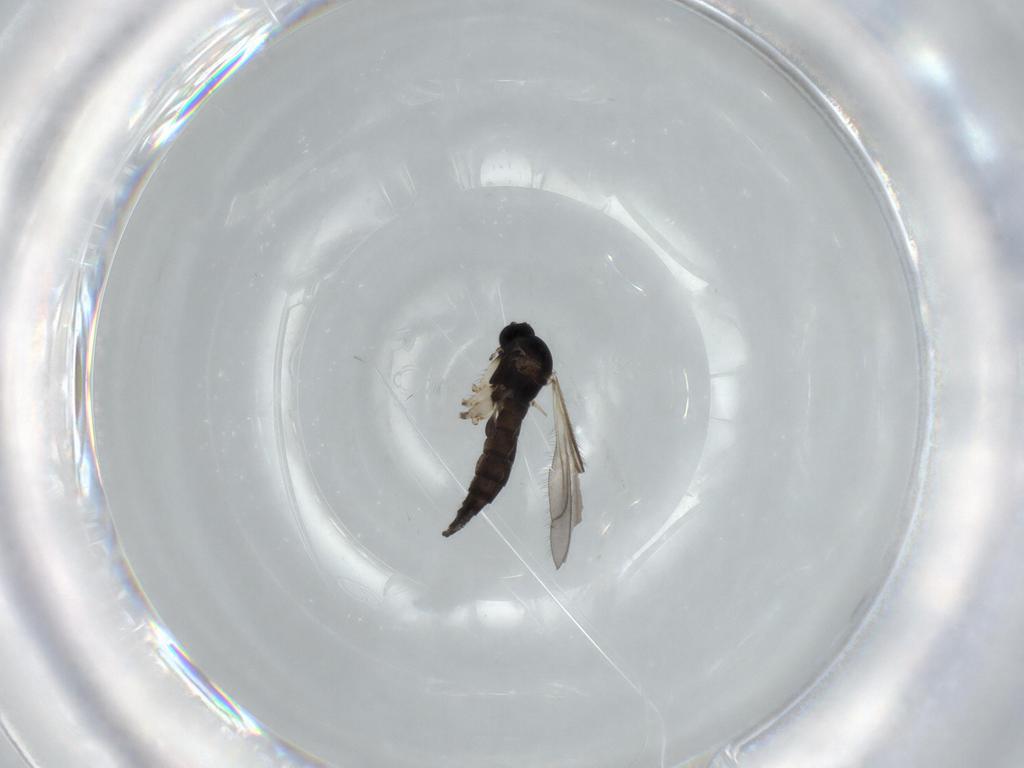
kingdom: Animalia
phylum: Arthropoda
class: Insecta
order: Diptera
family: Sciaridae
